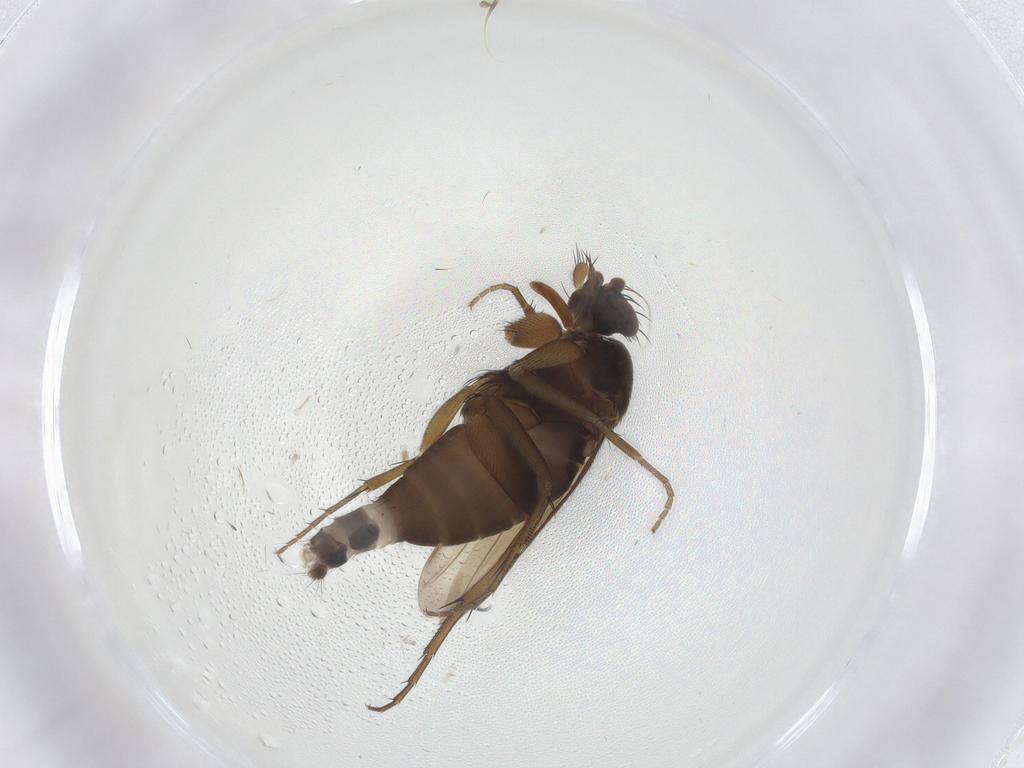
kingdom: Animalia
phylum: Arthropoda
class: Insecta
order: Diptera
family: Phoridae
